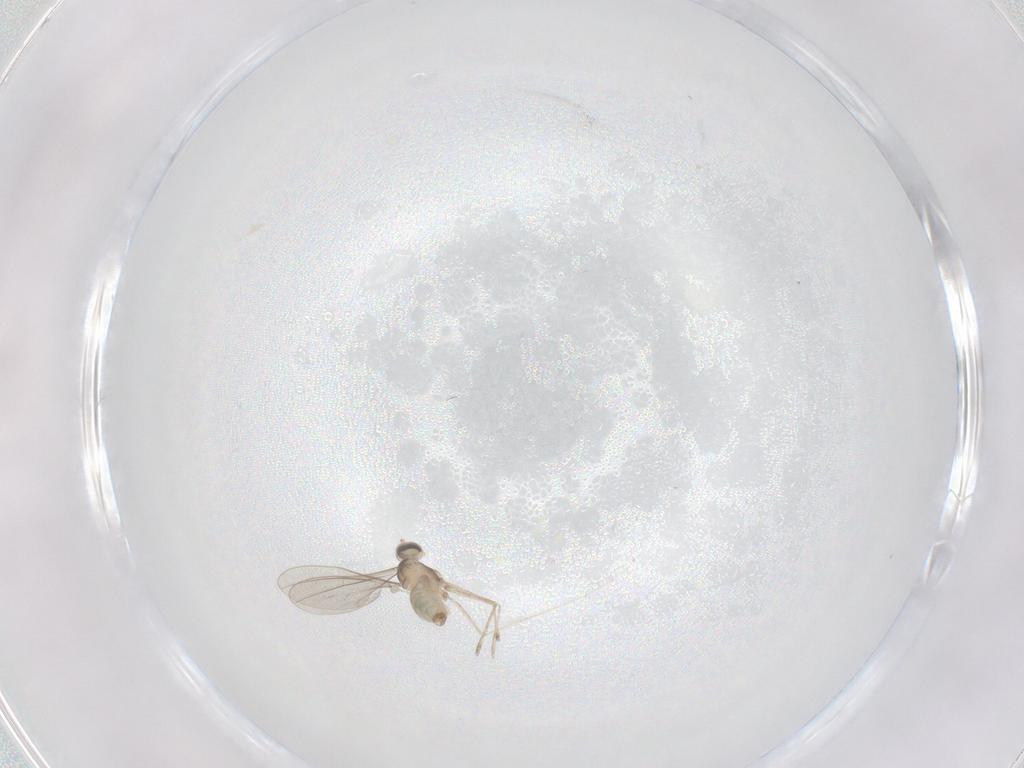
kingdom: Animalia
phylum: Arthropoda
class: Insecta
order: Diptera
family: Cecidomyiidae
